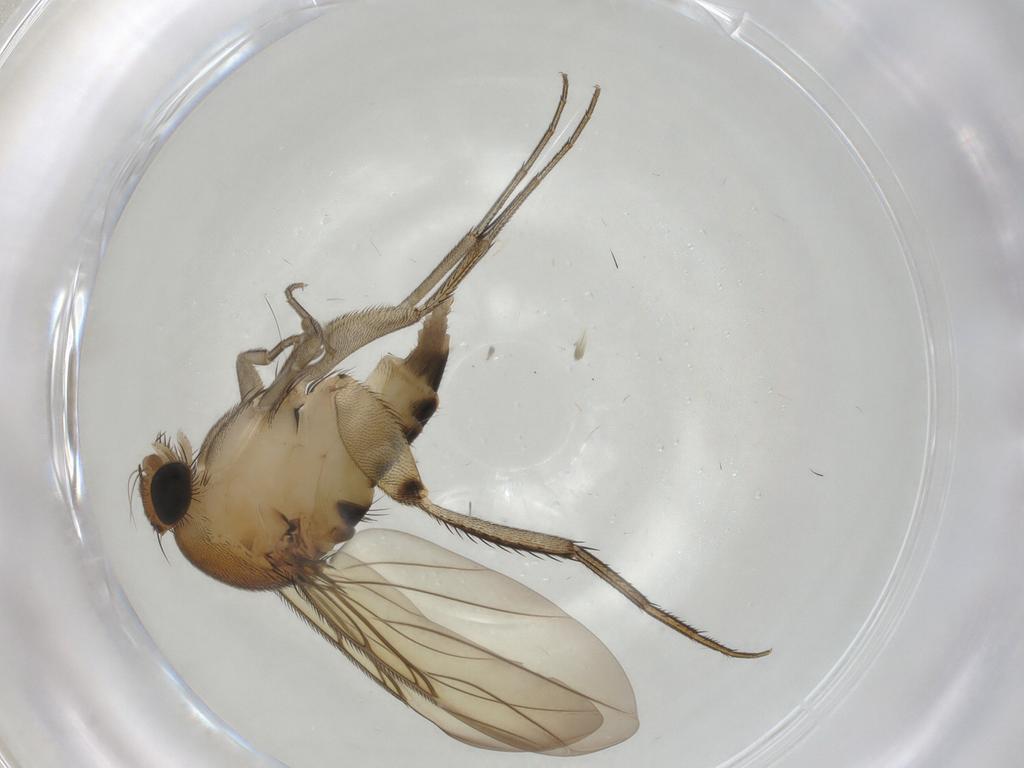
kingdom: Animalia
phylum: Arthropoda
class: Insecta
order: Diptera
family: Phoridae
